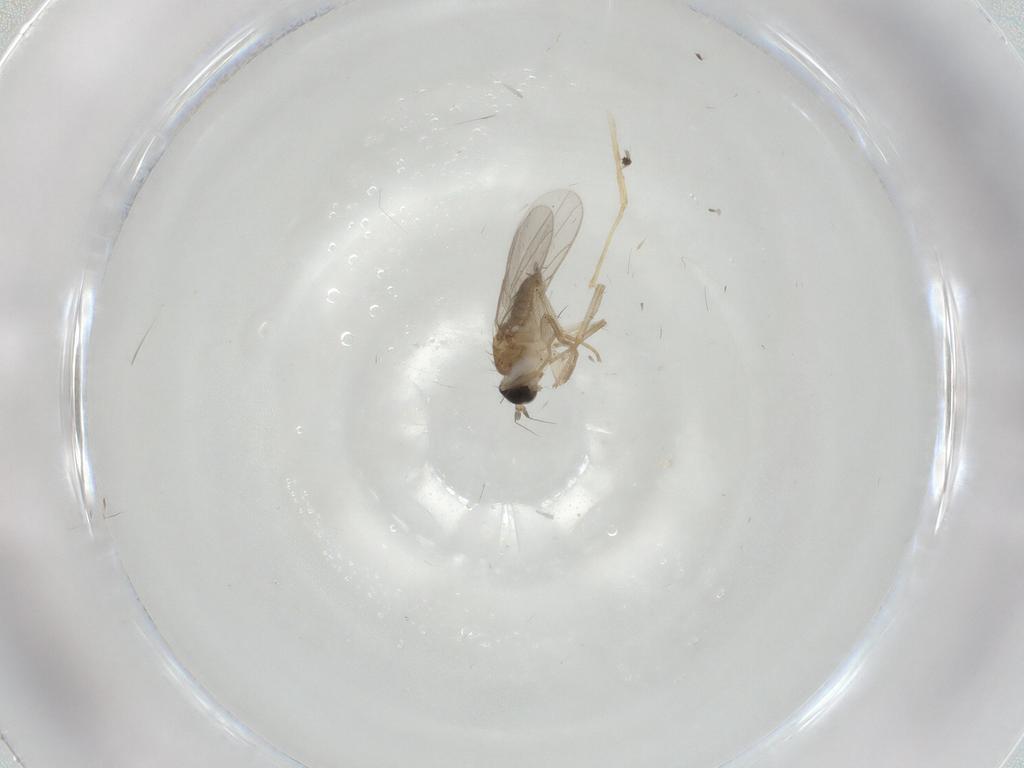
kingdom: Animalia
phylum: Arthropoda
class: Insecta
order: Diptera
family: Hybotidae
